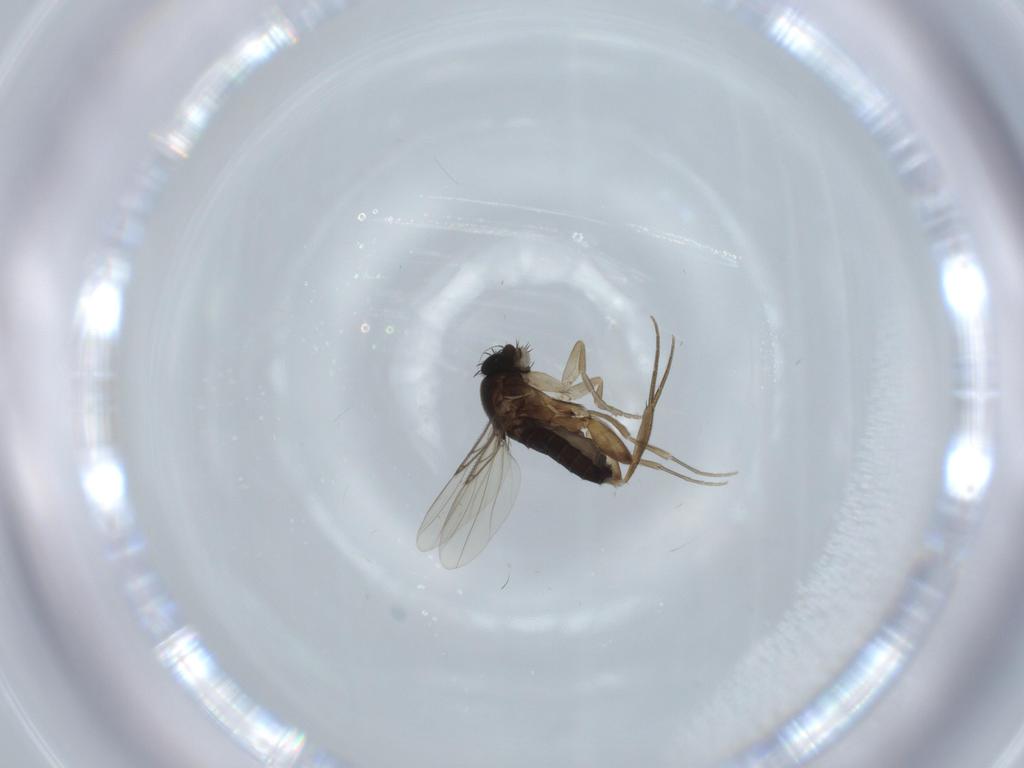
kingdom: Animalia
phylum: Arthropoda
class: Insecta
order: Diptera
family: Phoridae
